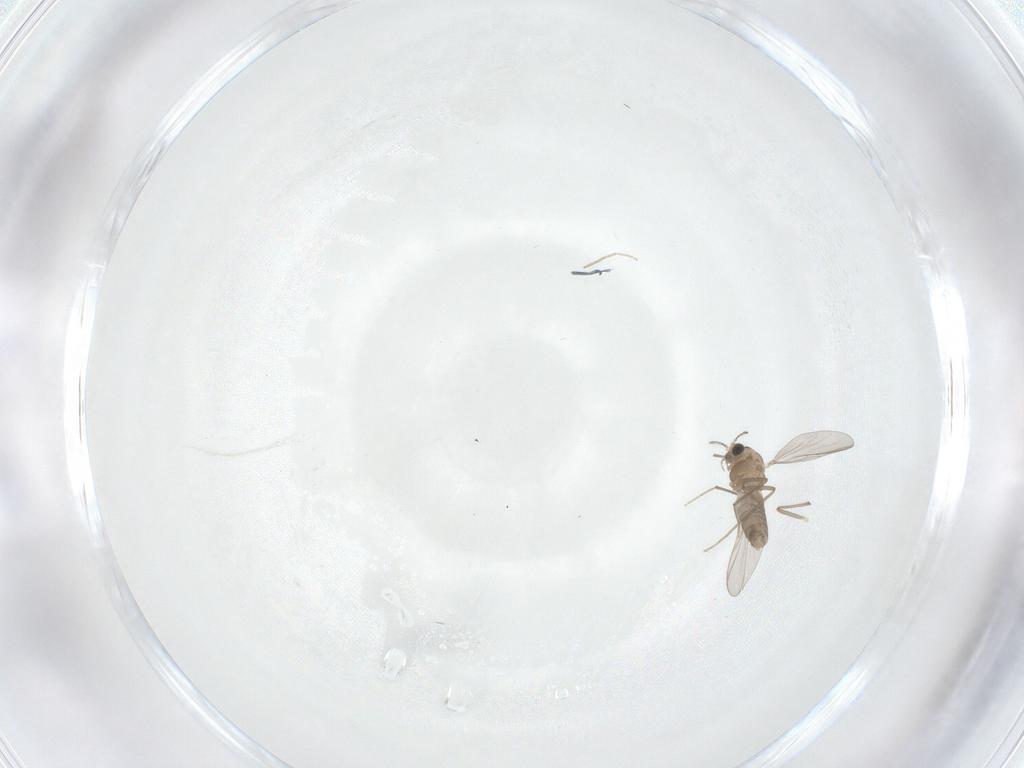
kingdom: Animalia
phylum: Arthropoda
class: Insecta
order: Diptera
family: Chironomidae
